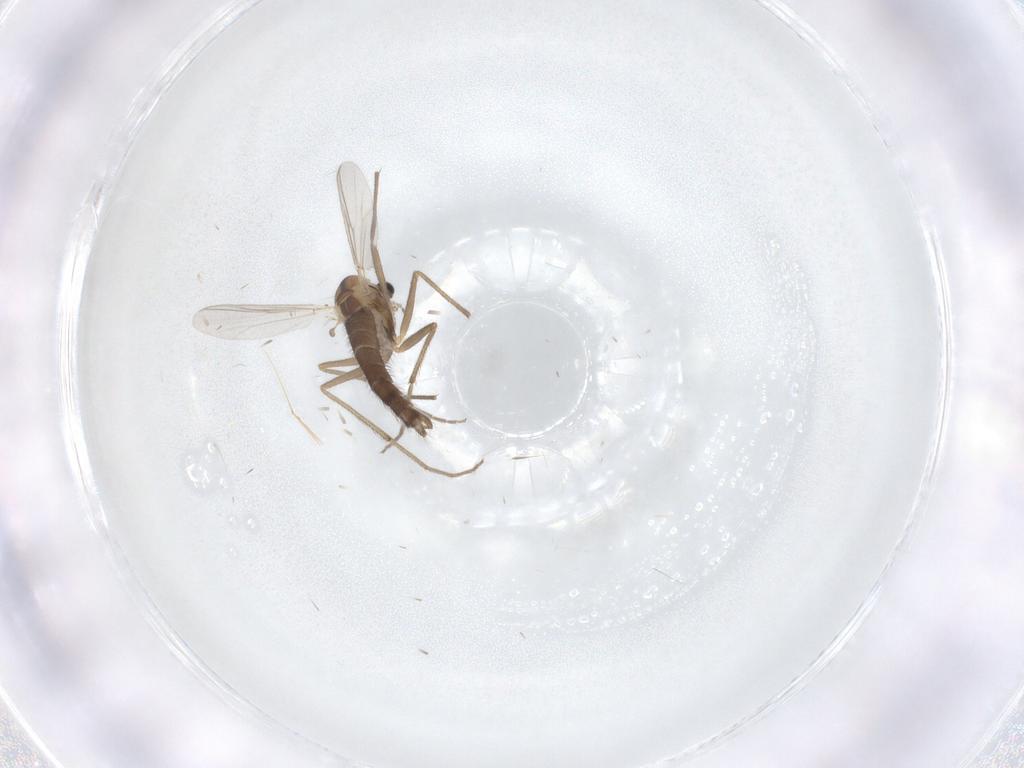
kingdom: Animalia
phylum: Arthropoda
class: Insecta
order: Diptera
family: Chironomidae
